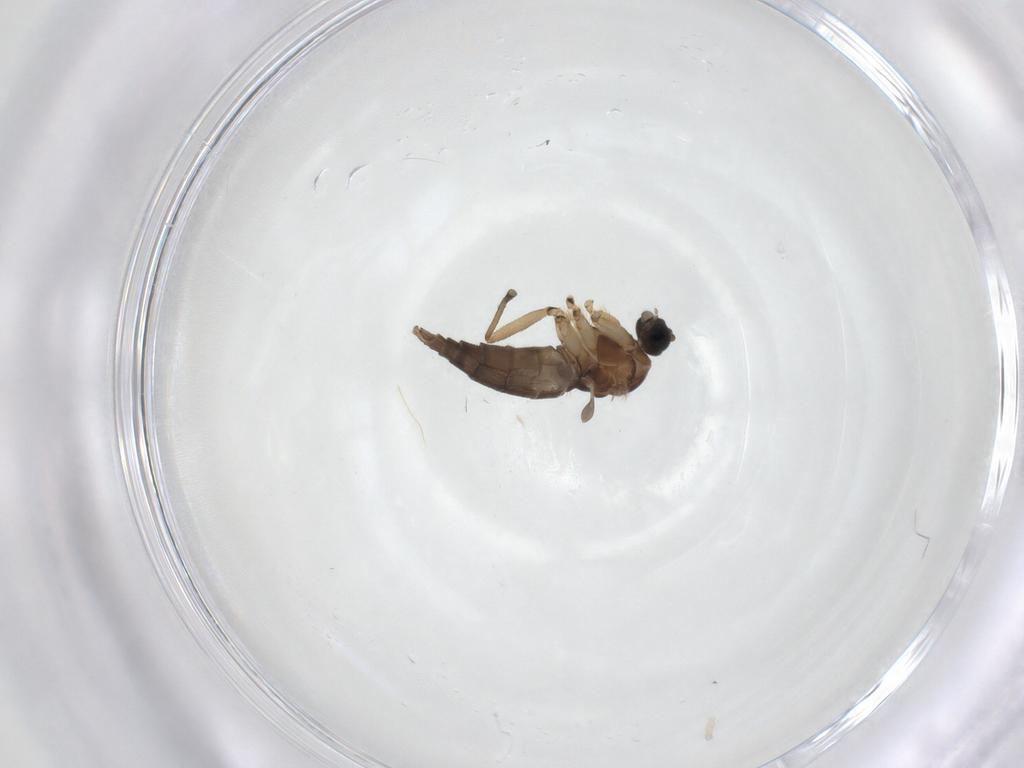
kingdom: Animalia
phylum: Arthropoda
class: Insecta
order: Diptera
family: Sciaridae
